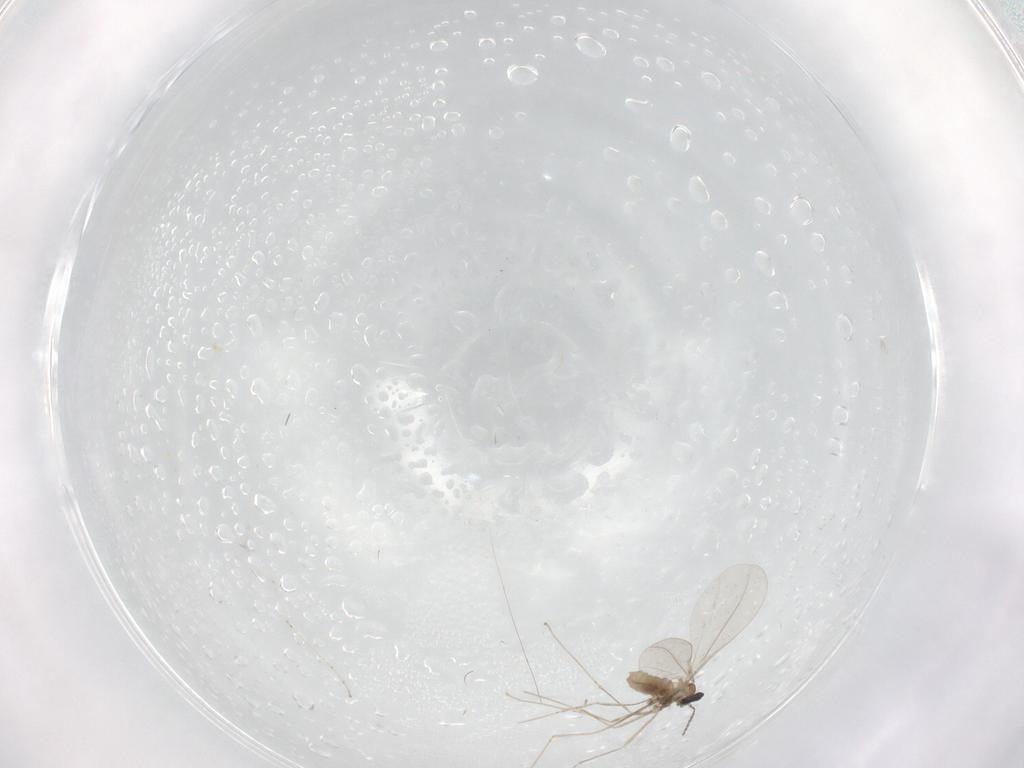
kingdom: Animalia
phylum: Arthropoda
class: Insecta
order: Diptera
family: Cecidomyiidae
